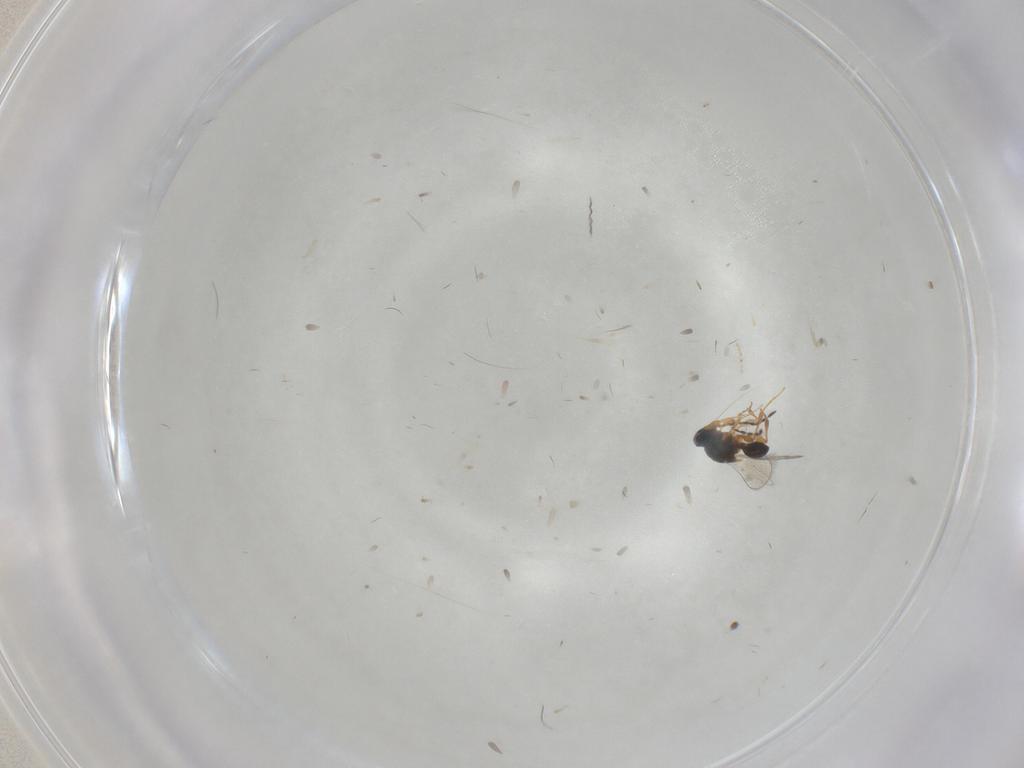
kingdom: Animalia
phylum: Arthropoda
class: Insecta
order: Hymenoptera
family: Platygastridae
